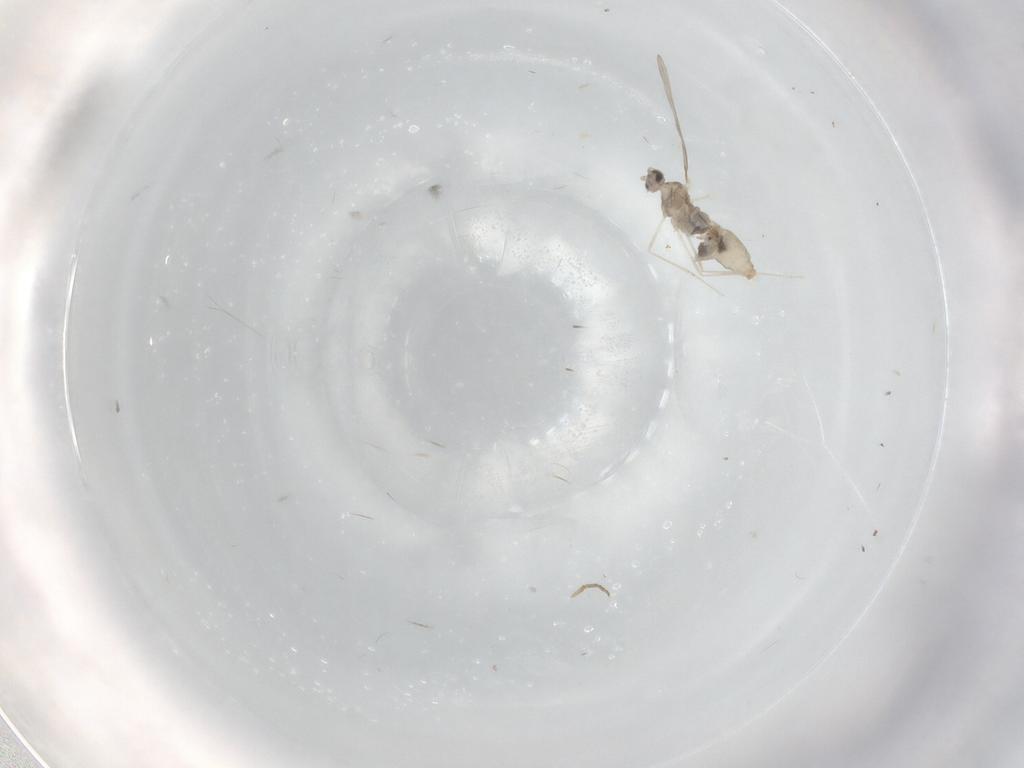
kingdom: Animalia
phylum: Arthropoda
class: Insecta
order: Diptera
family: Cecidomyiidae
